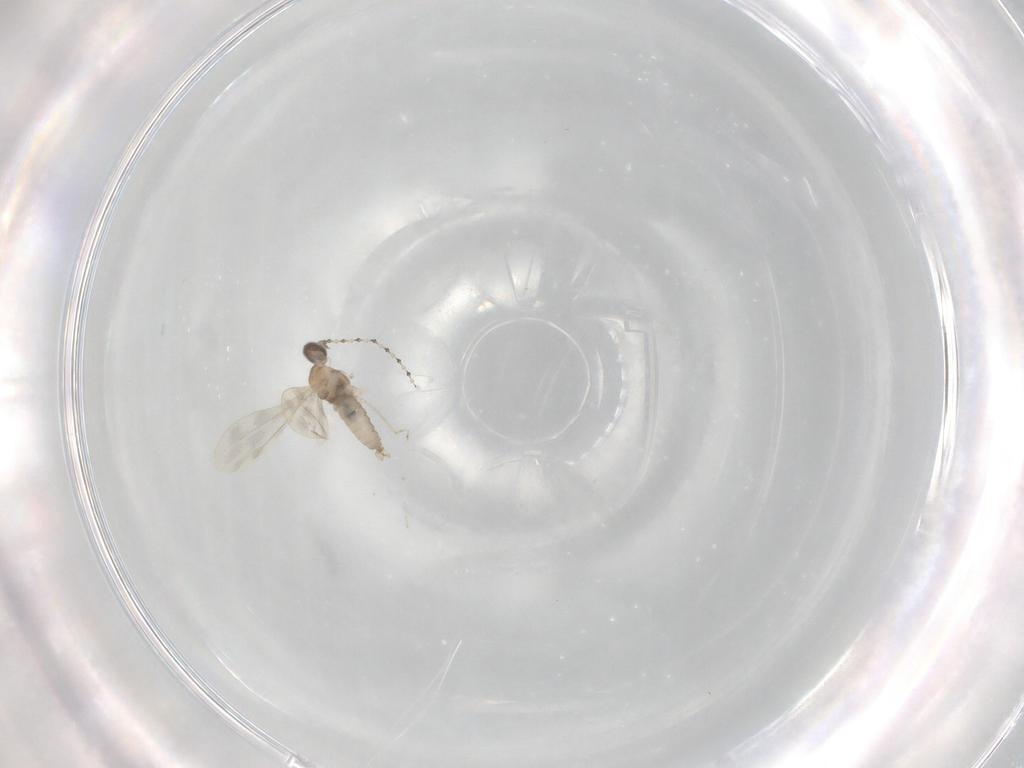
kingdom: Animalia
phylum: Arthropoda
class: Insecta
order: Diptera
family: Cecidomyiidae
